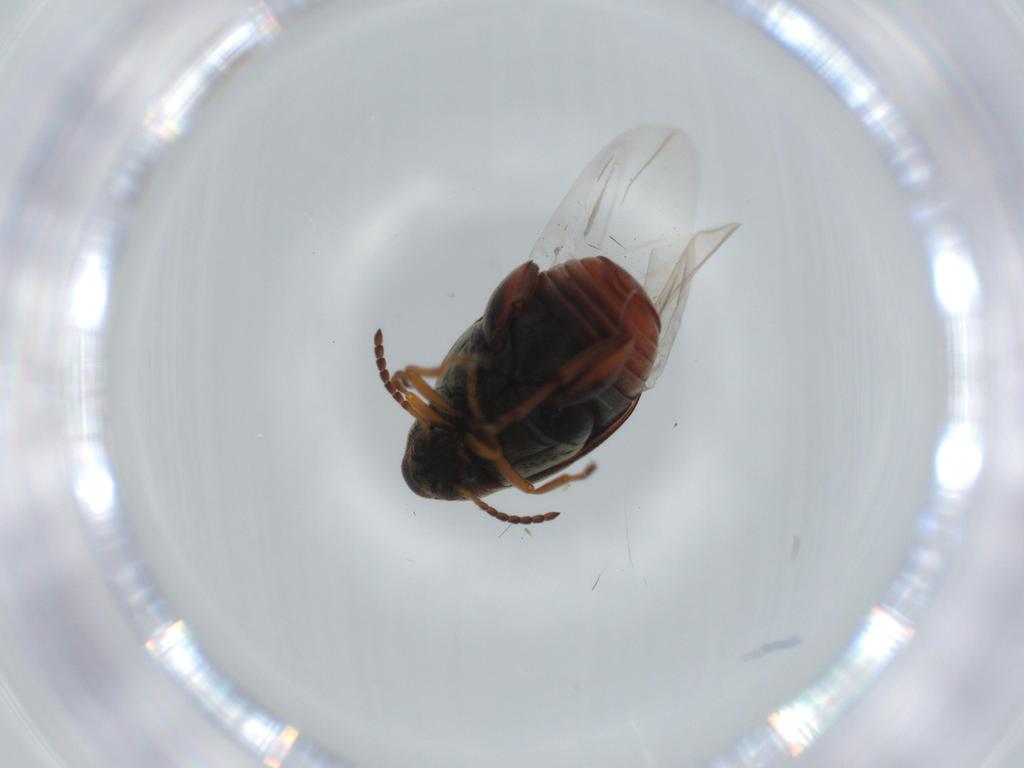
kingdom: Animalia
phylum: Arthropoda
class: Insecta
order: Coleoptera
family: Chrysomelidae
